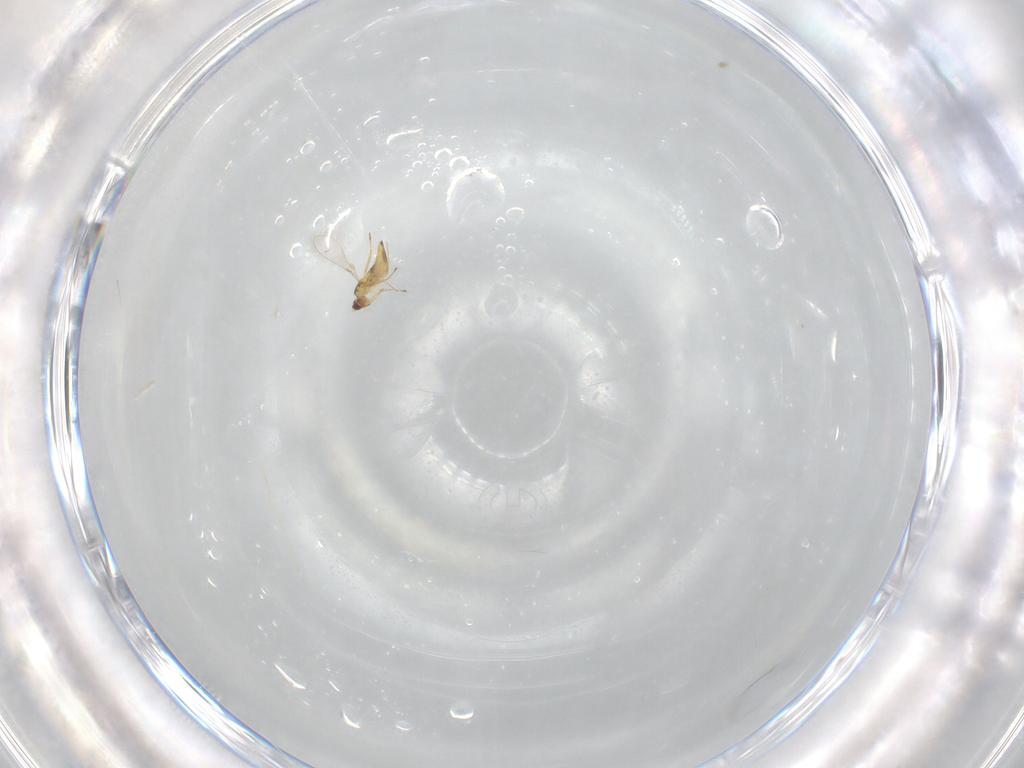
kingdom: Animalia
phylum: Arthropoda
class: Insecta
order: Hymenoptera
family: Mymaridae
